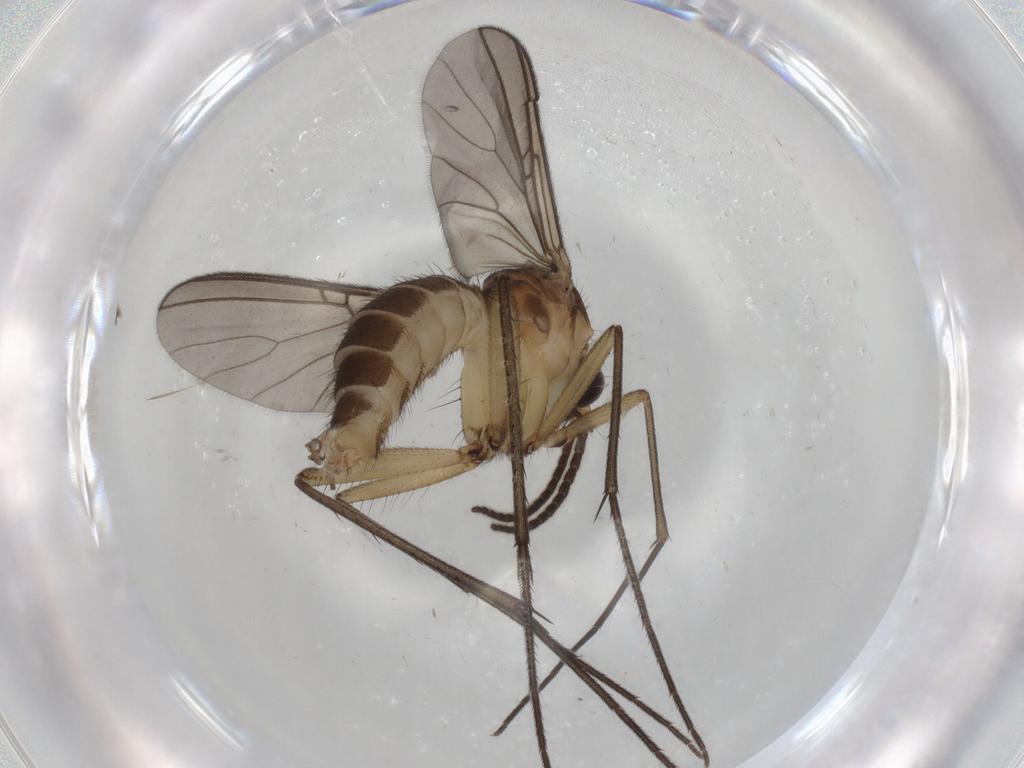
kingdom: Animalia
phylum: Arthropoda
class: Insecta
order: Diptera
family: Mycetophilidae
